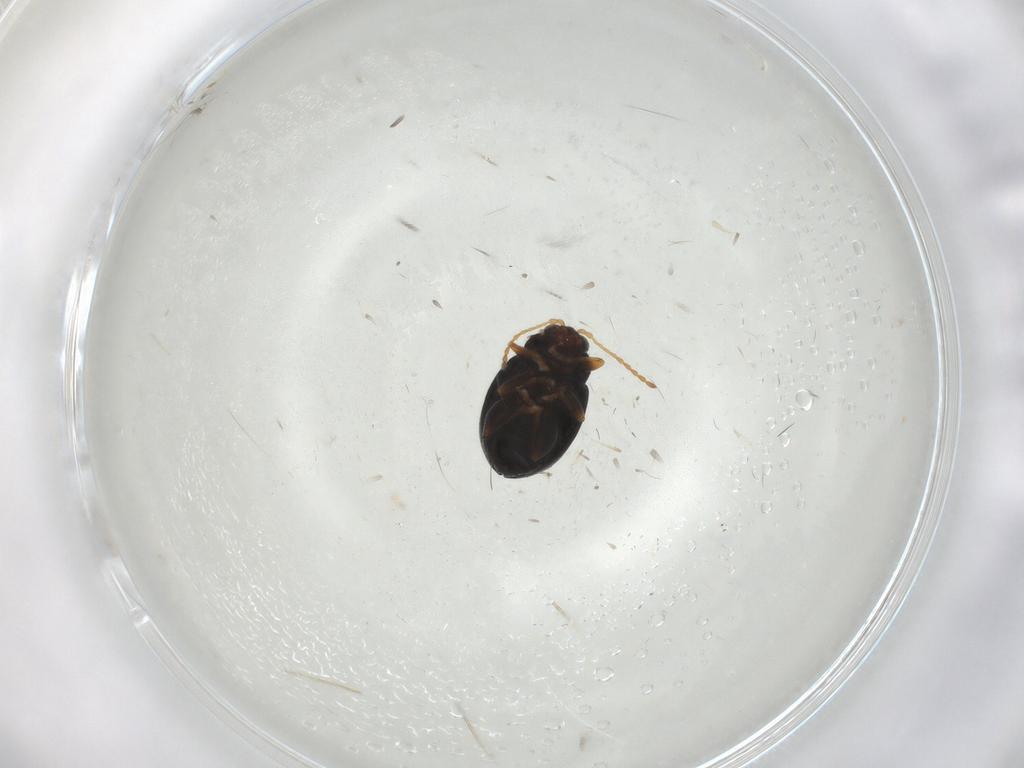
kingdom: Animalia
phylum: Arthropoda
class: Insecta
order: Coleoptera
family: Chrysomelidae
